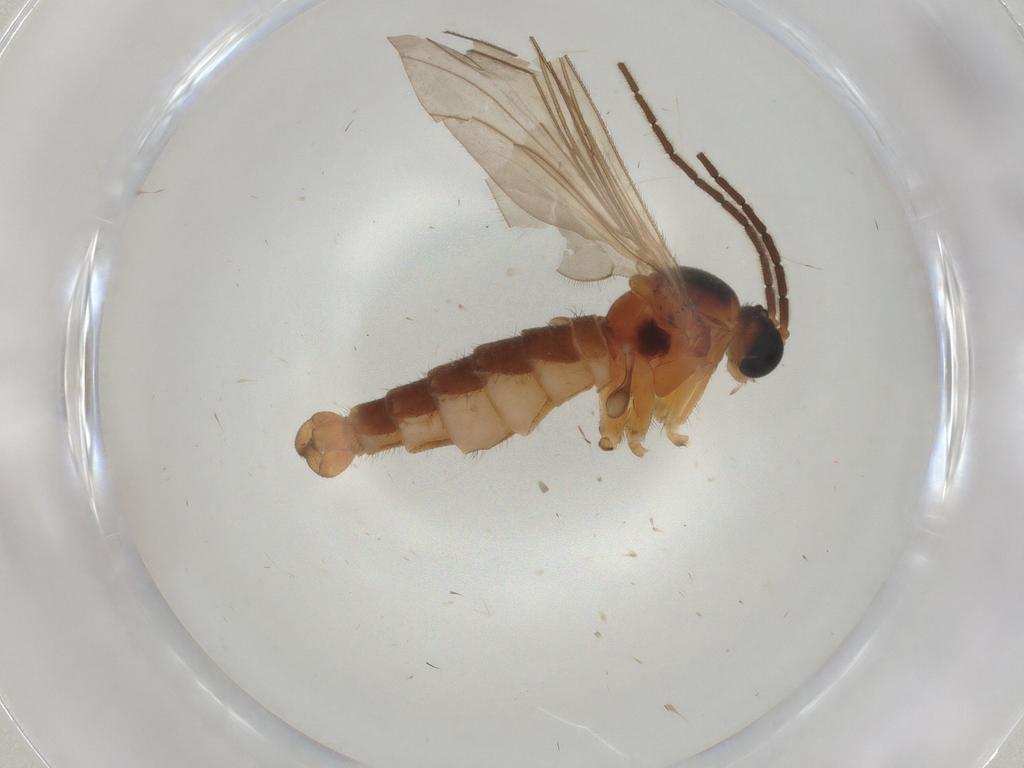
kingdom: Animalia
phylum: Arthropoda
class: Insecta
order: Diptera
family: Sciaridae
